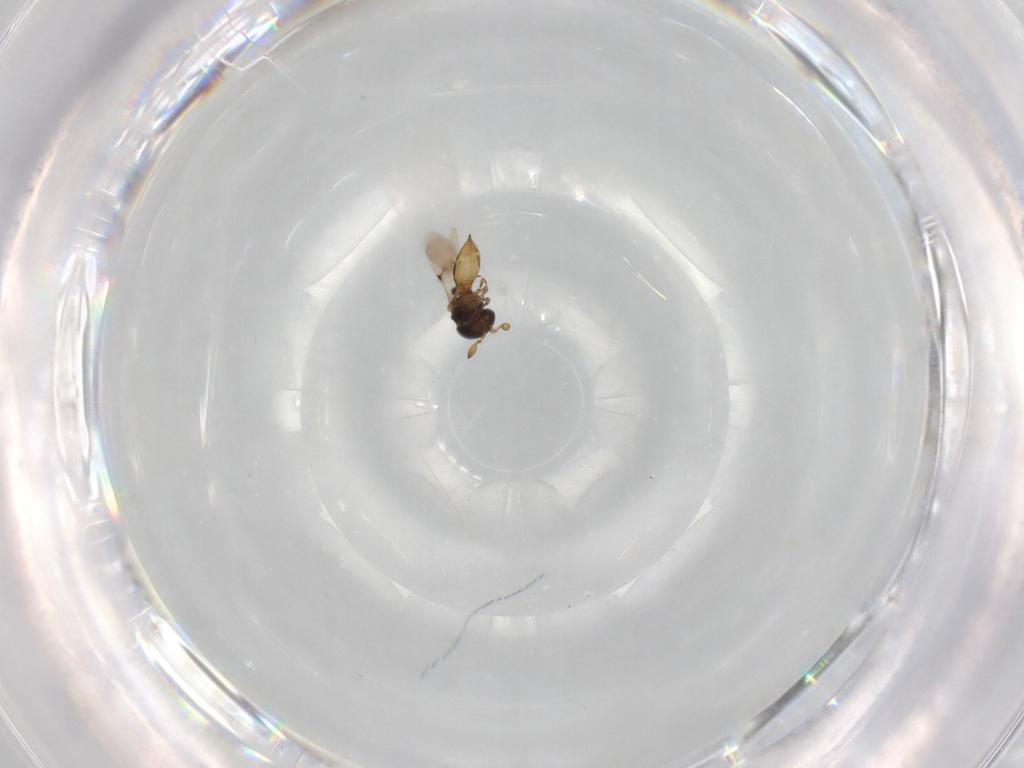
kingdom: Animalia
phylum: Arthropoda
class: Insecta
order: Hymenoptera
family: Scelionidae
